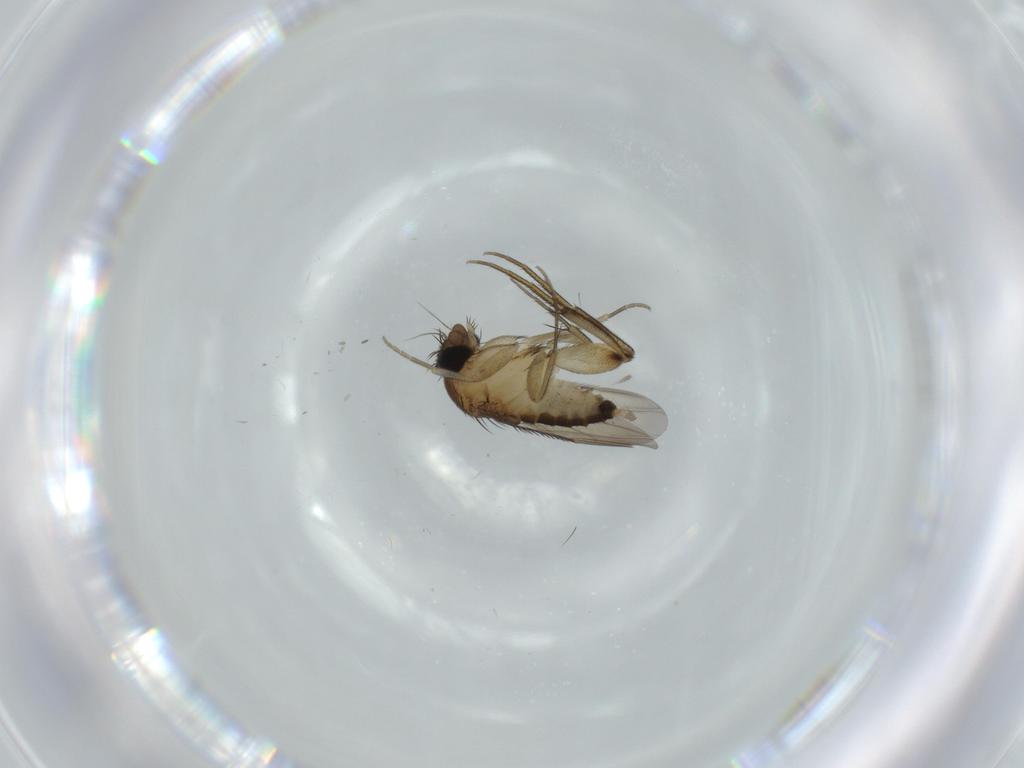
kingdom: Animalia
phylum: Arthropoda
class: Insecta
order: Diptera
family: Phoridae
